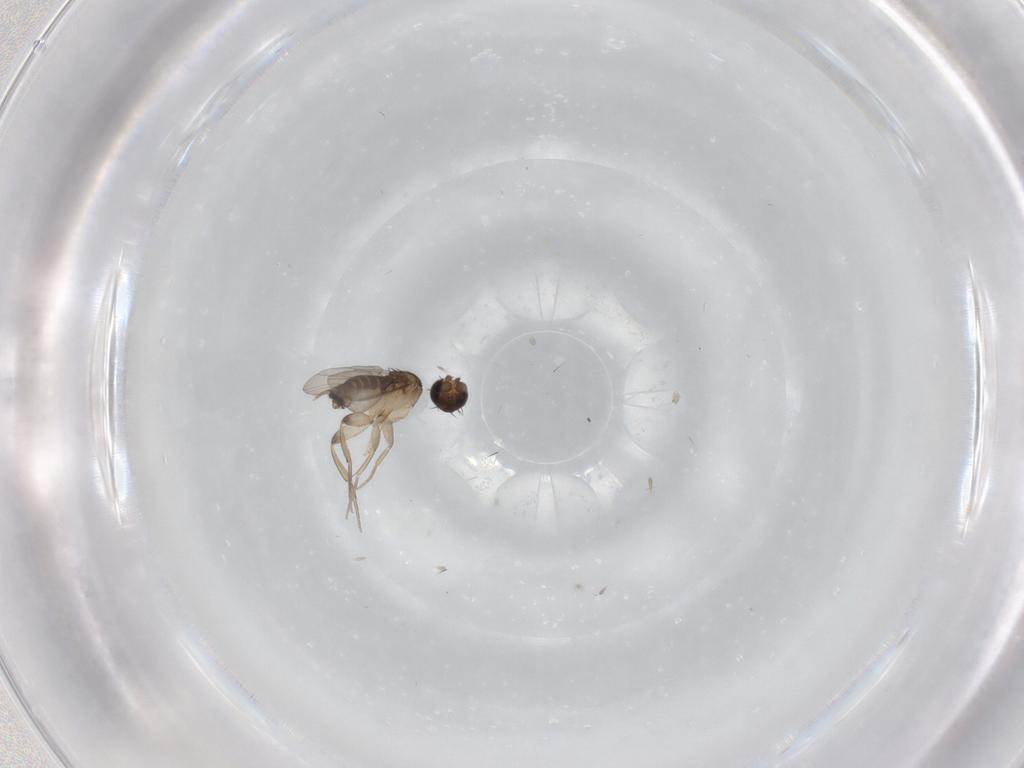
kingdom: Animalia
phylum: Arthropoda
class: Insecta
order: Diptera
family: Phoridae
